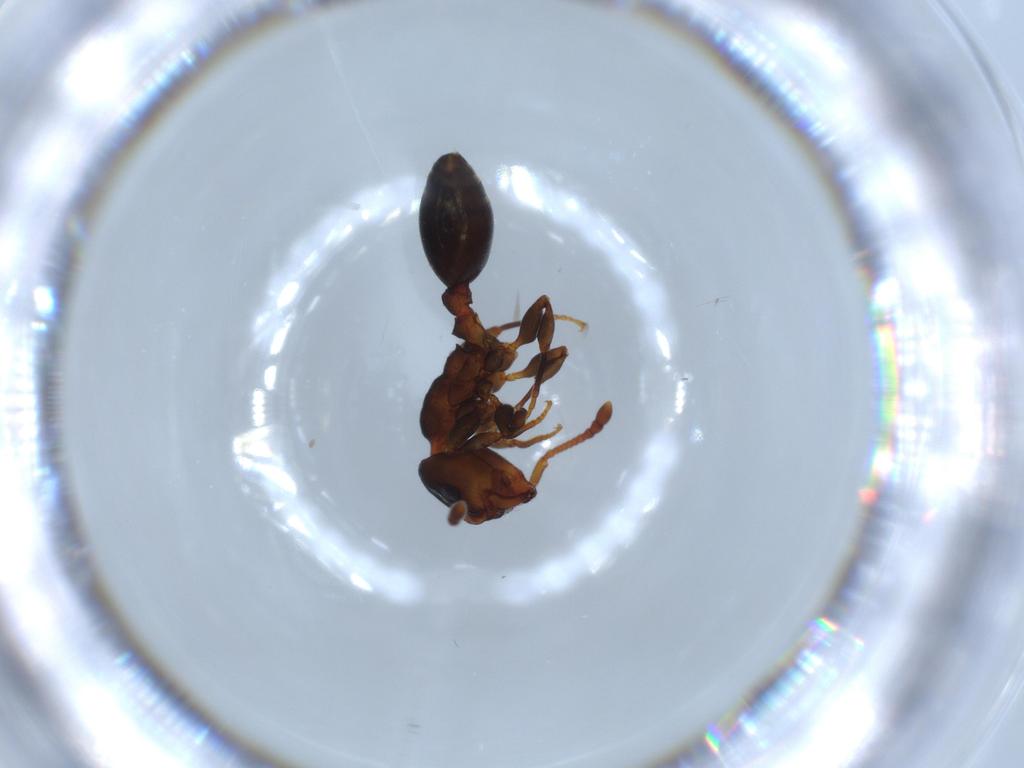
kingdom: Animalia
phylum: Arthropoda
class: Insecta
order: Hymenoptera
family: Formicidae
